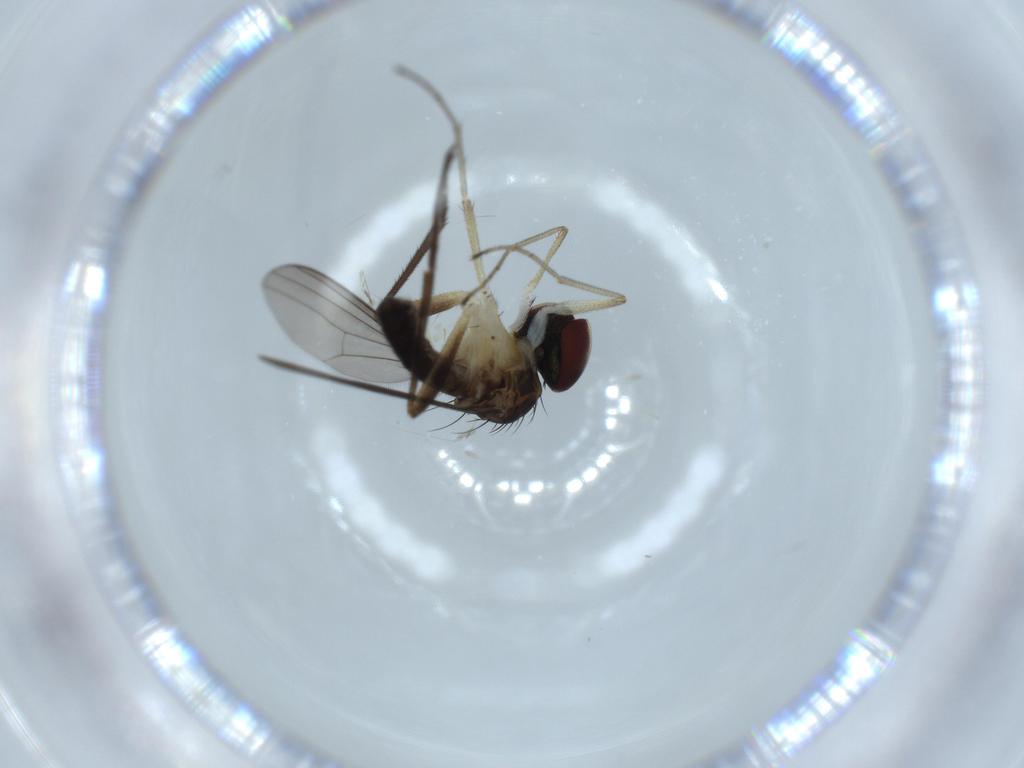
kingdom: Animalia
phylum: Arthropoda
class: Insecta
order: Diptera
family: Dolichopodidae
